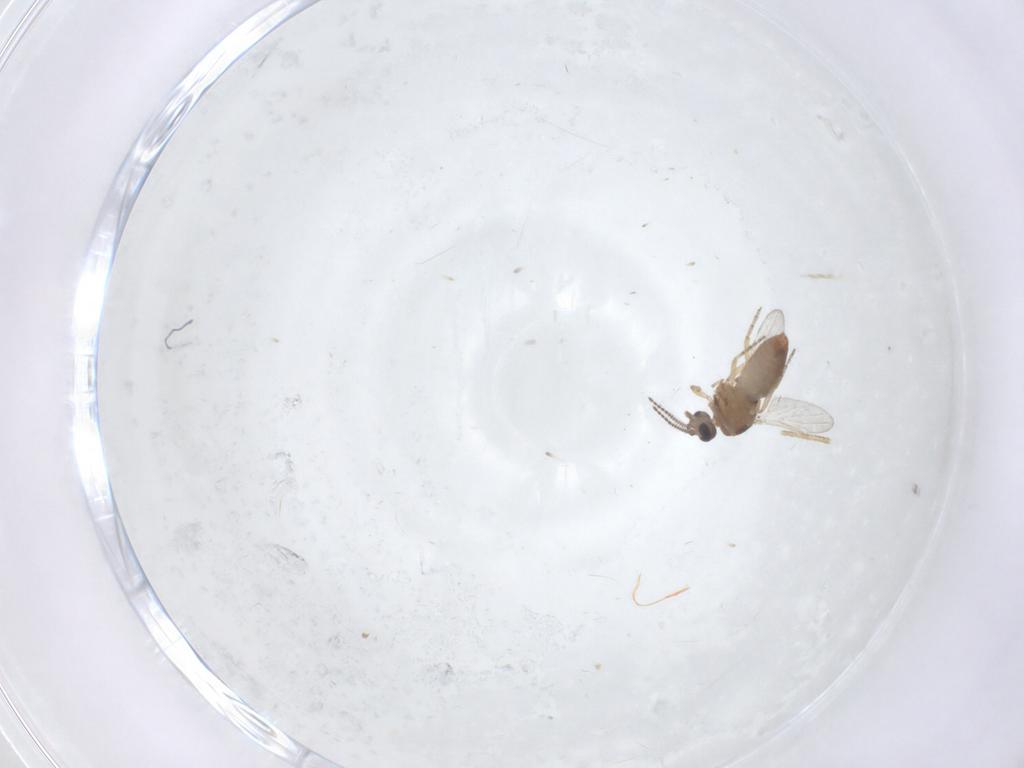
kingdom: Animalia
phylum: Arthropoda
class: Insecta
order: Diptera
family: Ceratopogonidae
